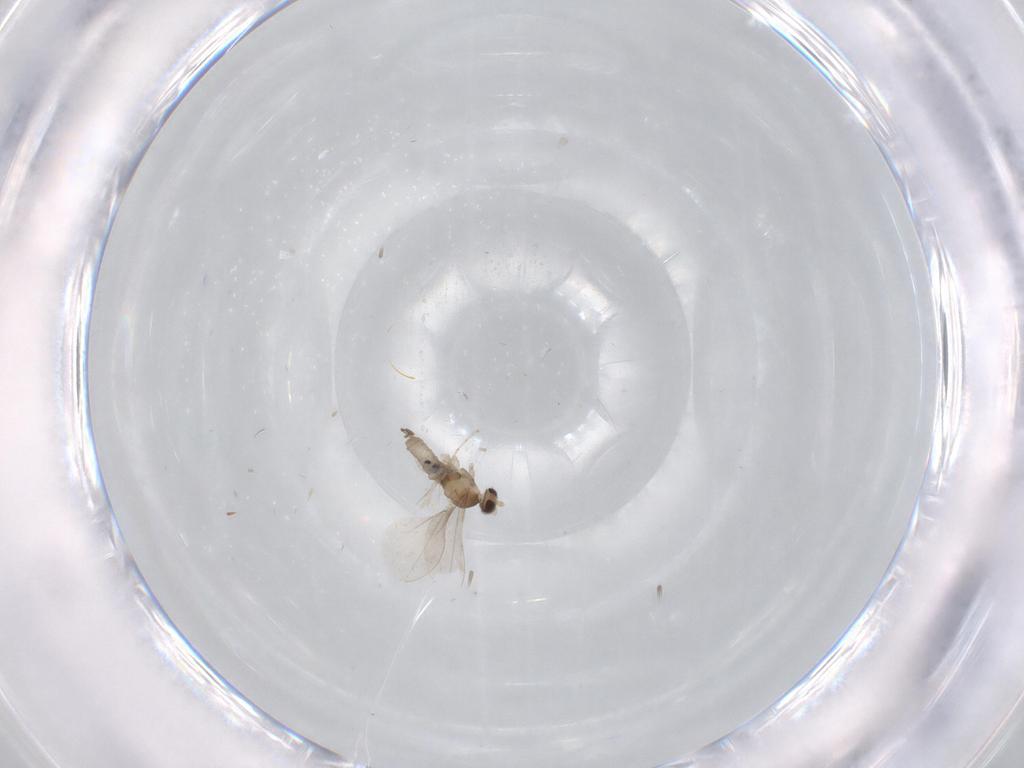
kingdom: Animalia
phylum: Arthropoda
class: Insecta
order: Diptera
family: Cecidomyiidae
